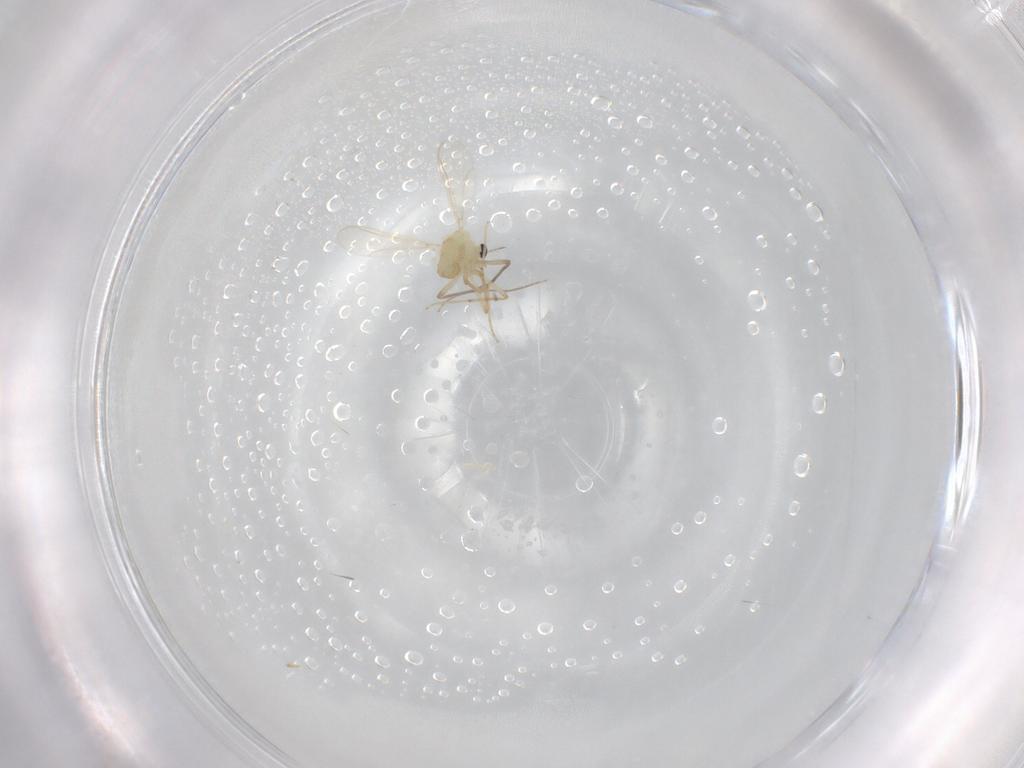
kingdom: Animalia
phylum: Arthropoda
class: Insecta
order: Diptera
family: Chironomidae
